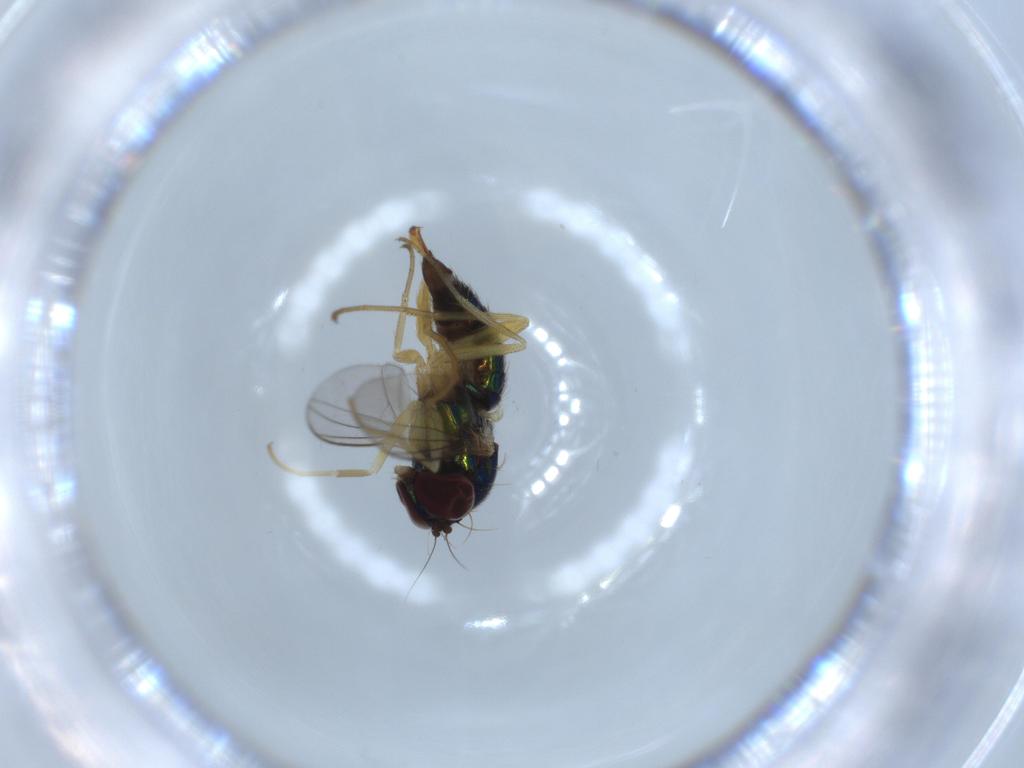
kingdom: Animalia
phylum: Arthropoda
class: Insecta
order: Diptera
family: Dolichopodidae
